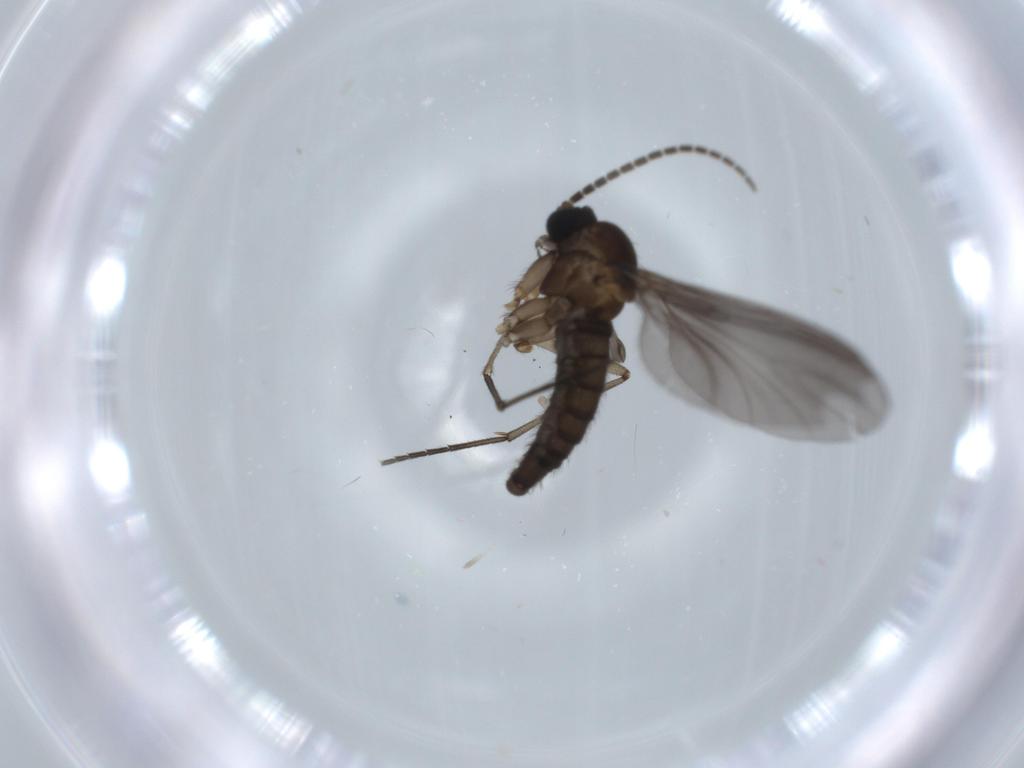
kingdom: Animalia
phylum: Arthropoda
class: Insecta
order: Diptera
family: Sciaridae
